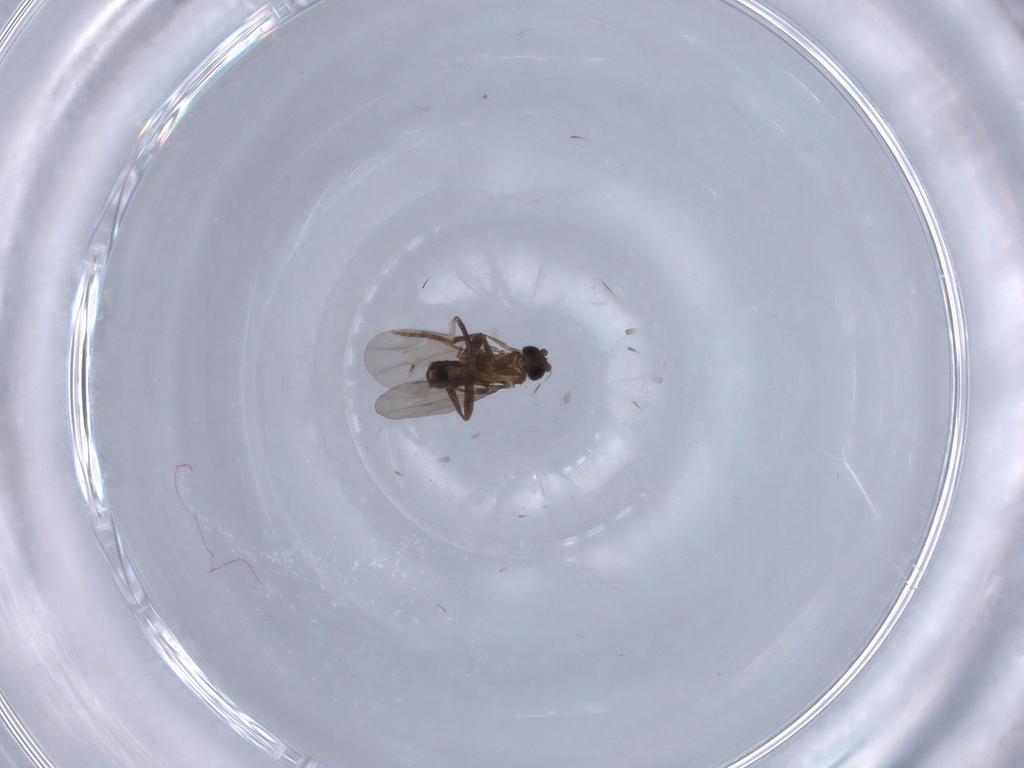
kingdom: Animalia
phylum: Arthropoda
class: Insecta
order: Diptera
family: Phoridae
